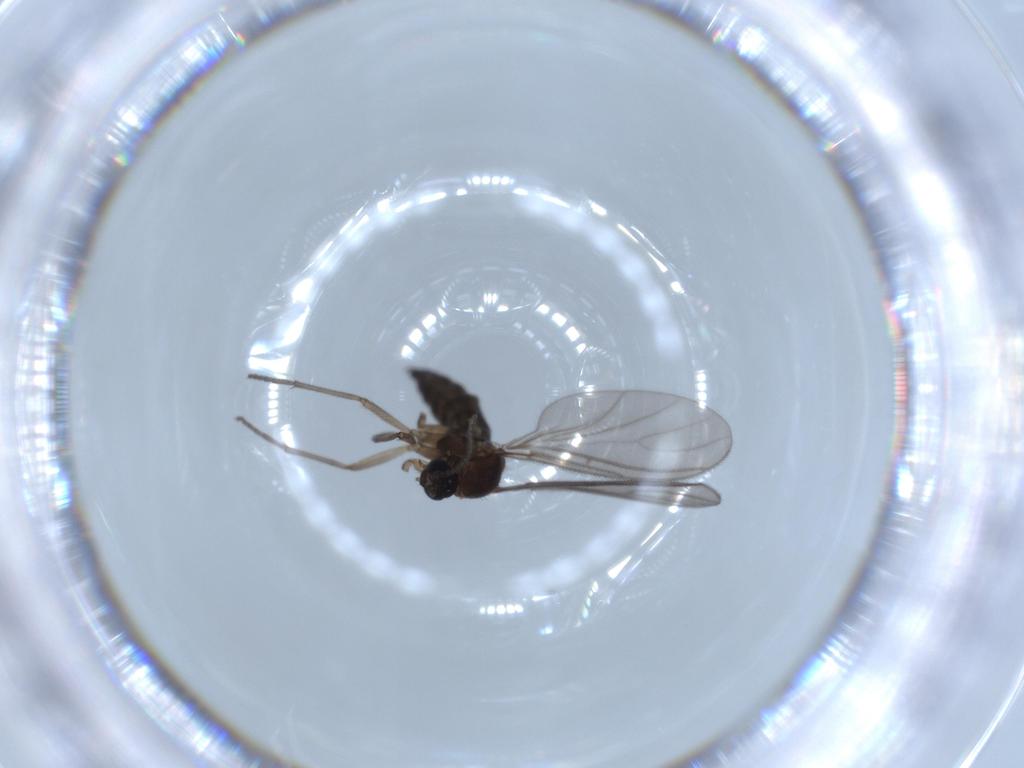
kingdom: Animalia
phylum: Arthropoda
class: Insecta
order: Diptera
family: Sciaridae
